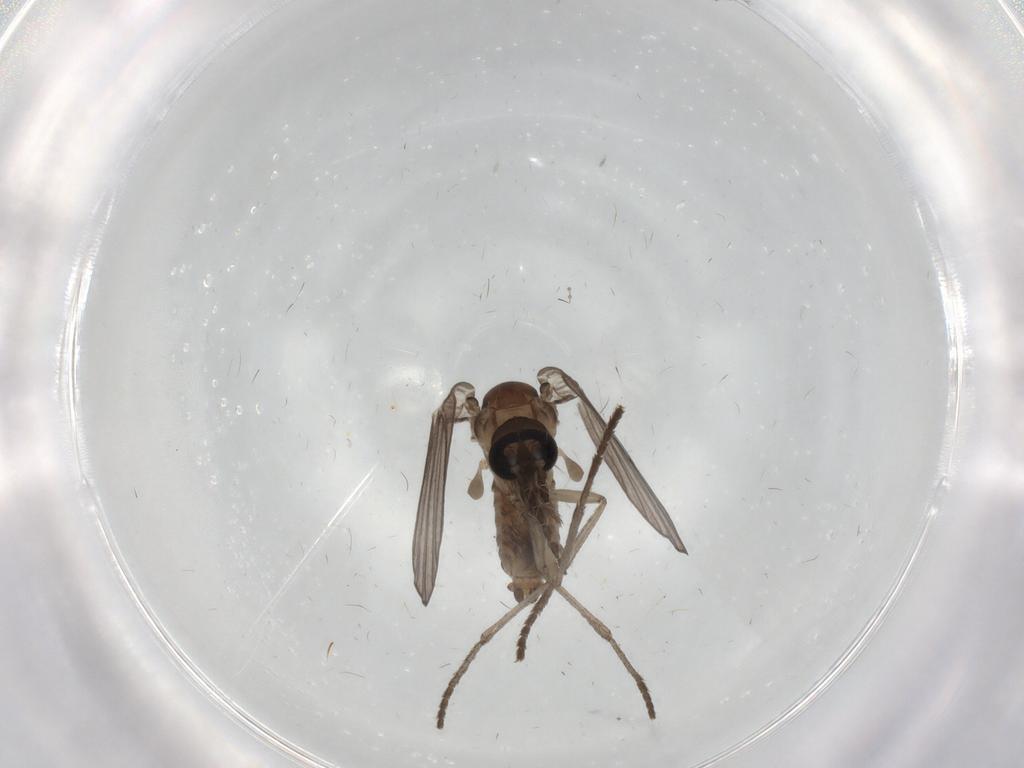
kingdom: Animalia
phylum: Arthropoda
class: Insecta
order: Diptera
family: Psychodidae
